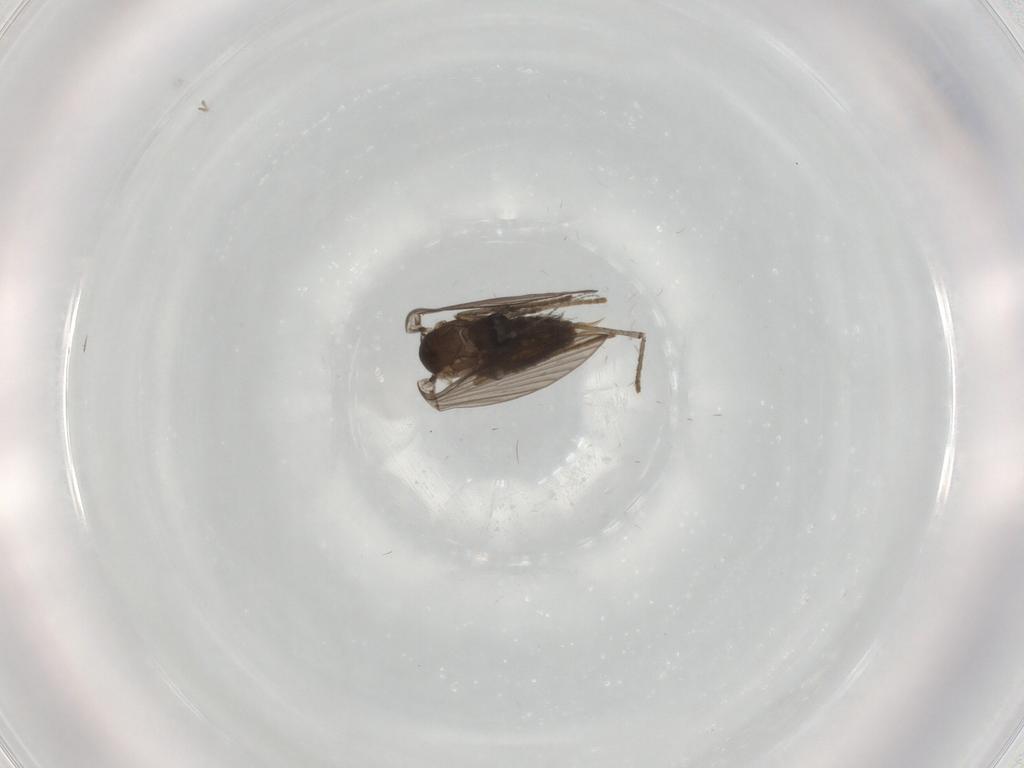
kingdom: Animalia
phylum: Arthropoda
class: Insecta
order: Diptera
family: Psychodidae
